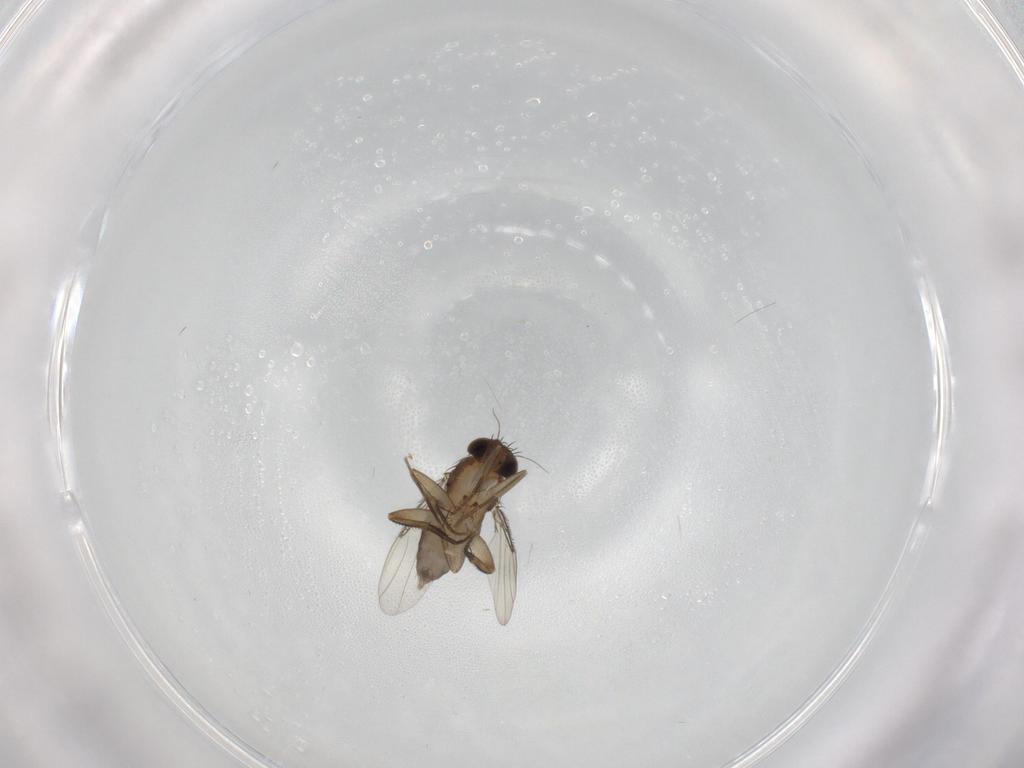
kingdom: Animalia
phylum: Arthropoda
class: Insecta
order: Diptera
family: Phoridae
